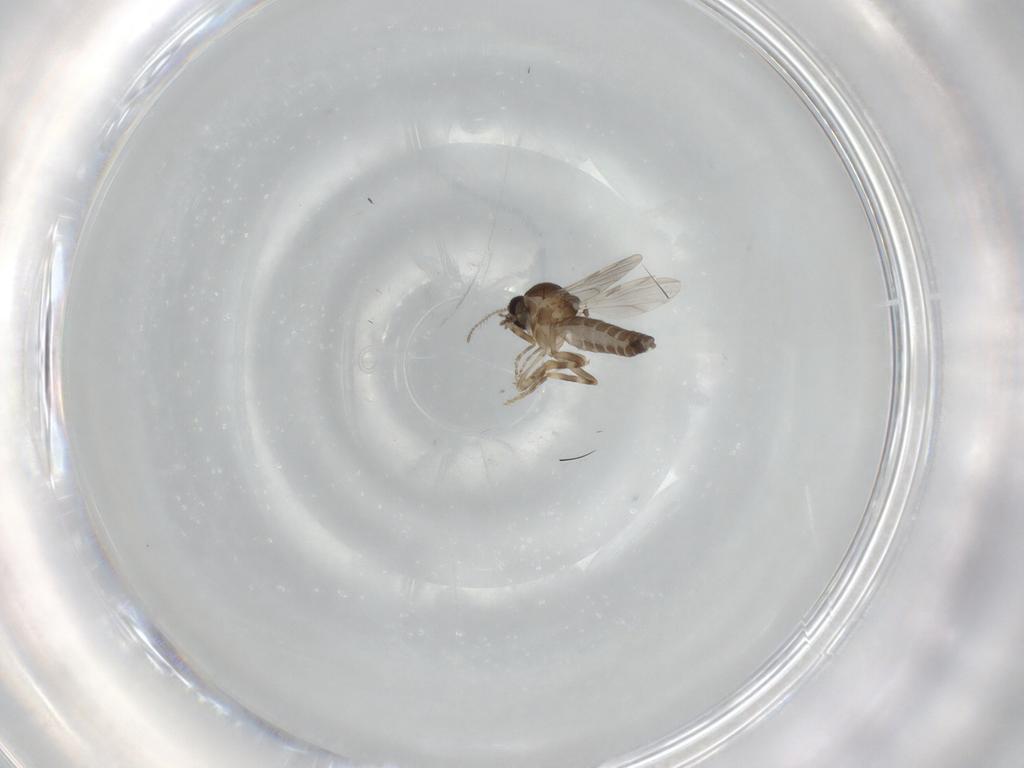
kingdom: Animalia
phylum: Arthropoda
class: Insecta
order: Diptera
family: Ceratopogonidae
